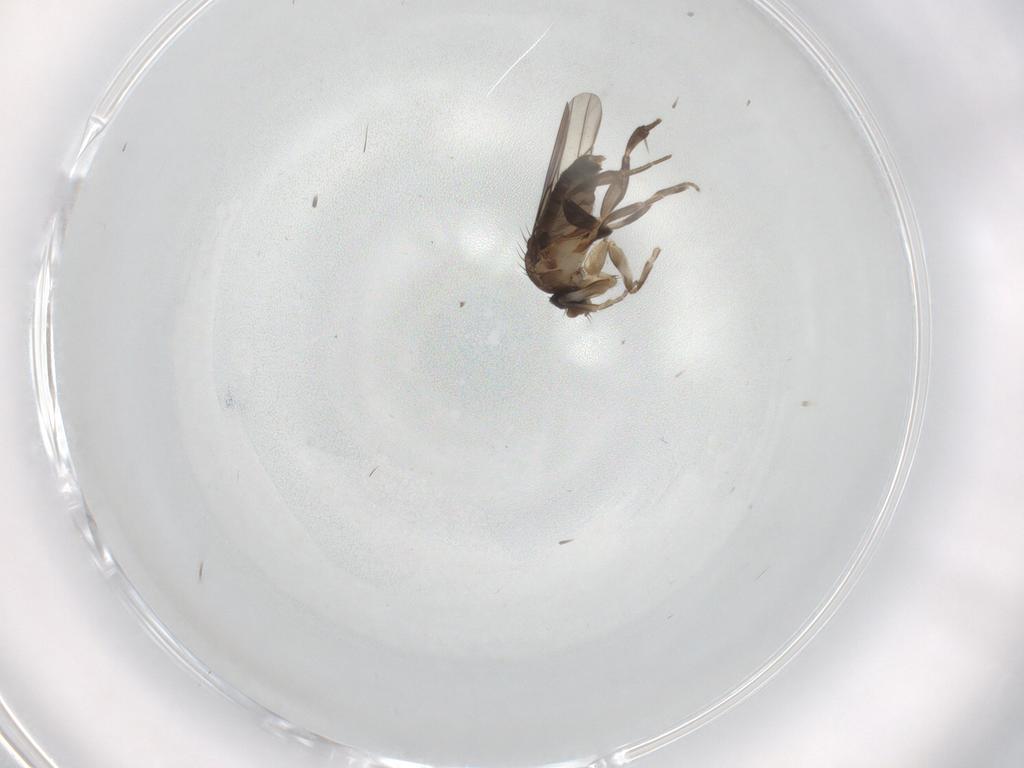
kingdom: Animalia
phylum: Arthropoda
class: Insecta
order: Diptera
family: Phoridae
